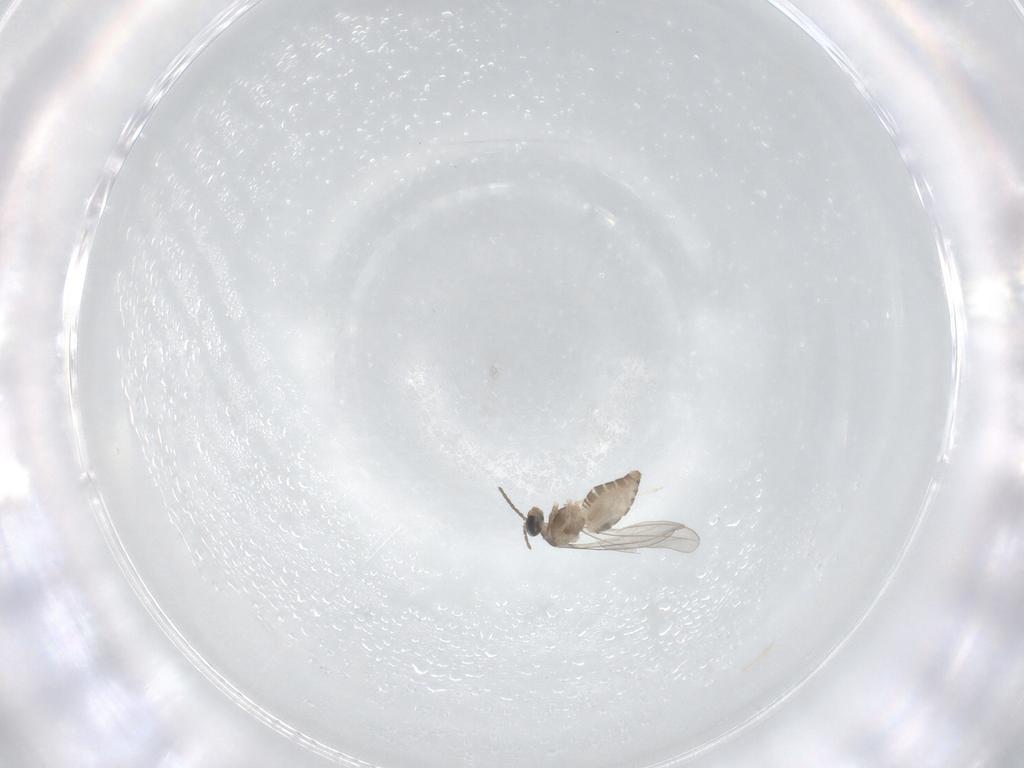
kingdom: Animalia
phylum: Arthropoda
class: Insecta
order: Diptera
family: Cecidomyiidae
